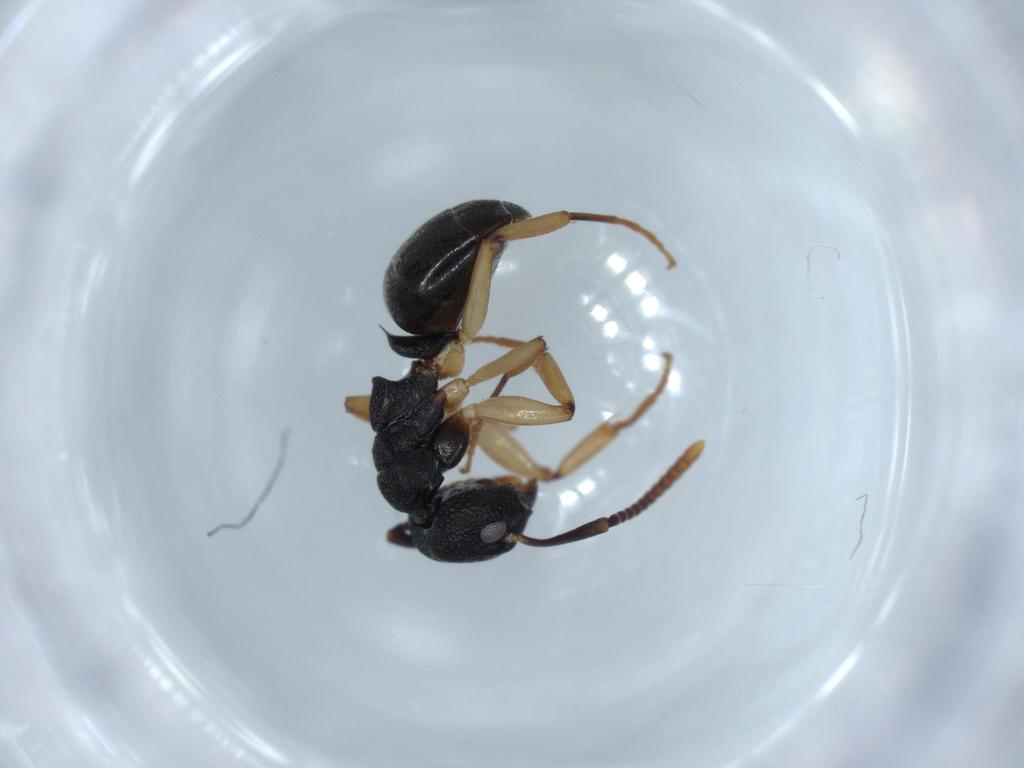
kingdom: Animalia
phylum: Arthropoda
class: Insecta
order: Hymenoptera
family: Formicidae
